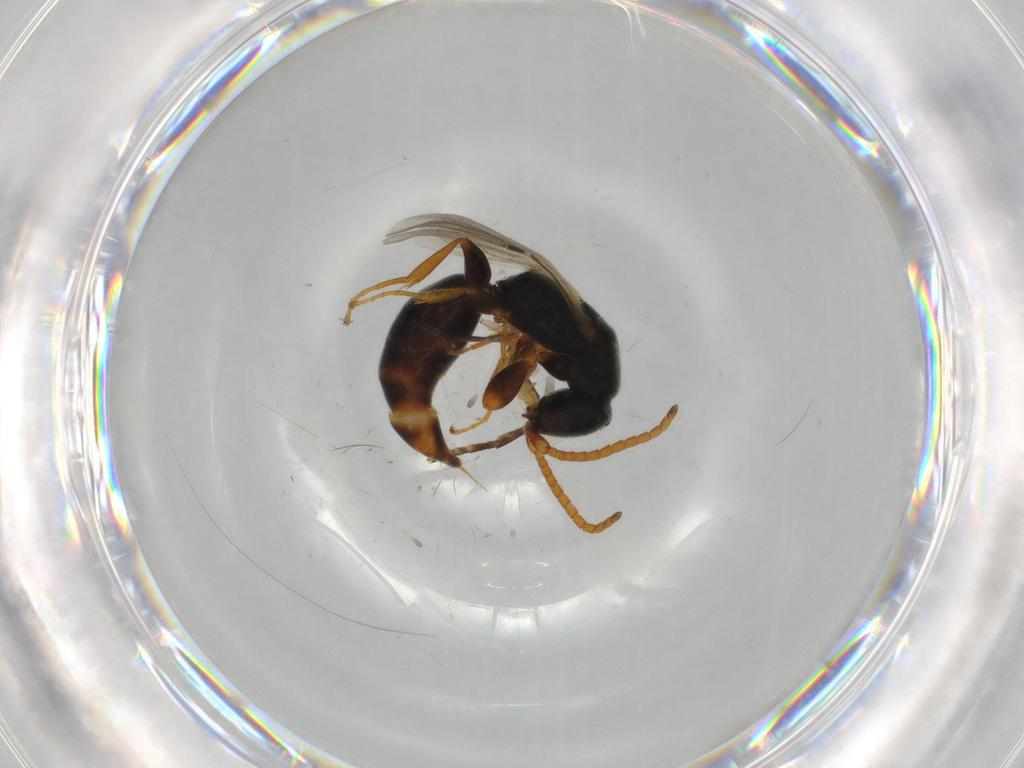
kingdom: Animalia
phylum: Arthropoda
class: Insecta
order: Hymenoptera
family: Bethylidae
